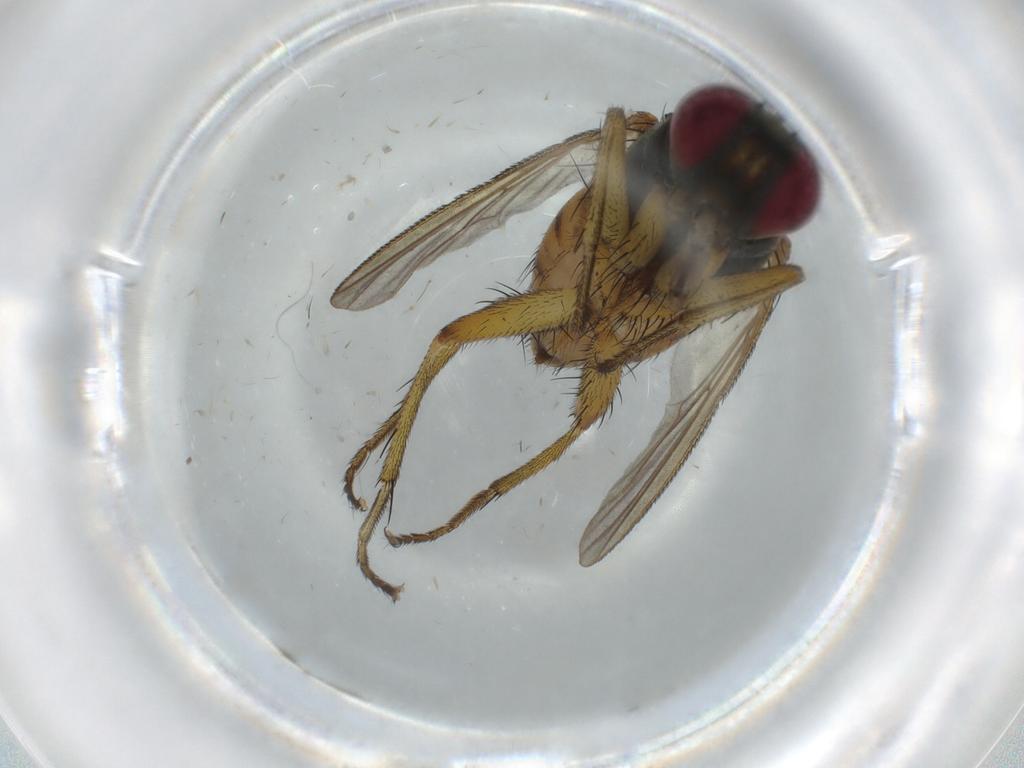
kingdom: Animalia
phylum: Arthropoda
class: Insecta
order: Diptera
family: Muscidae
